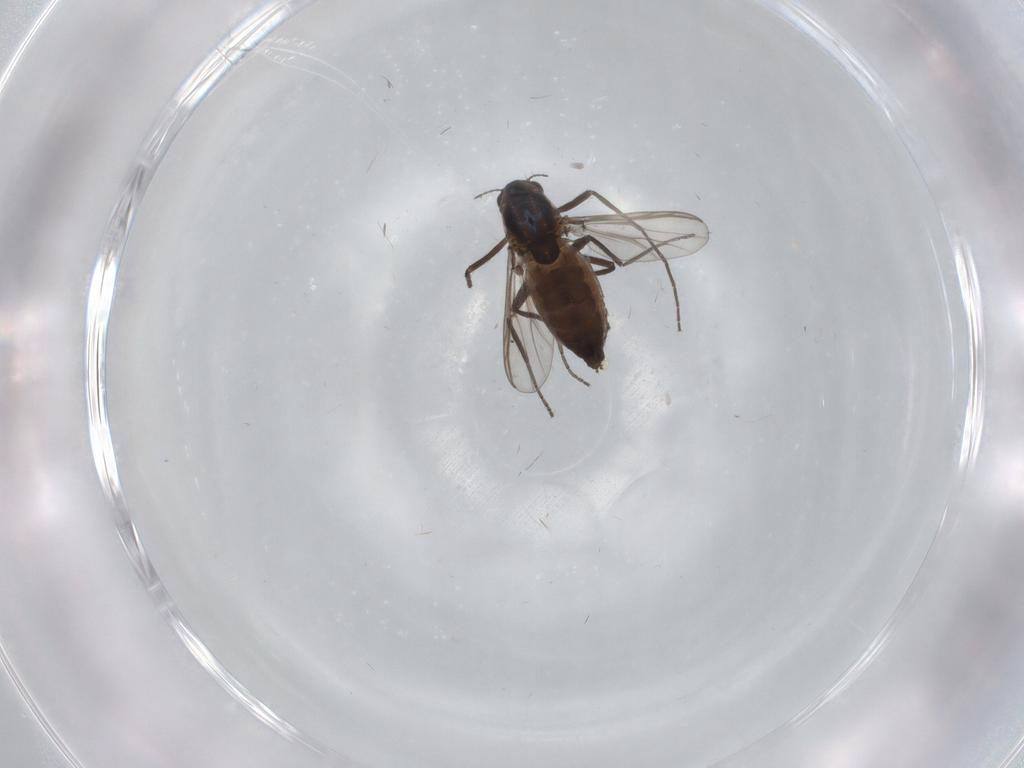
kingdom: Animalia
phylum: Arthropoda
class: Insecta
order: Diptera
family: Chironomidae
